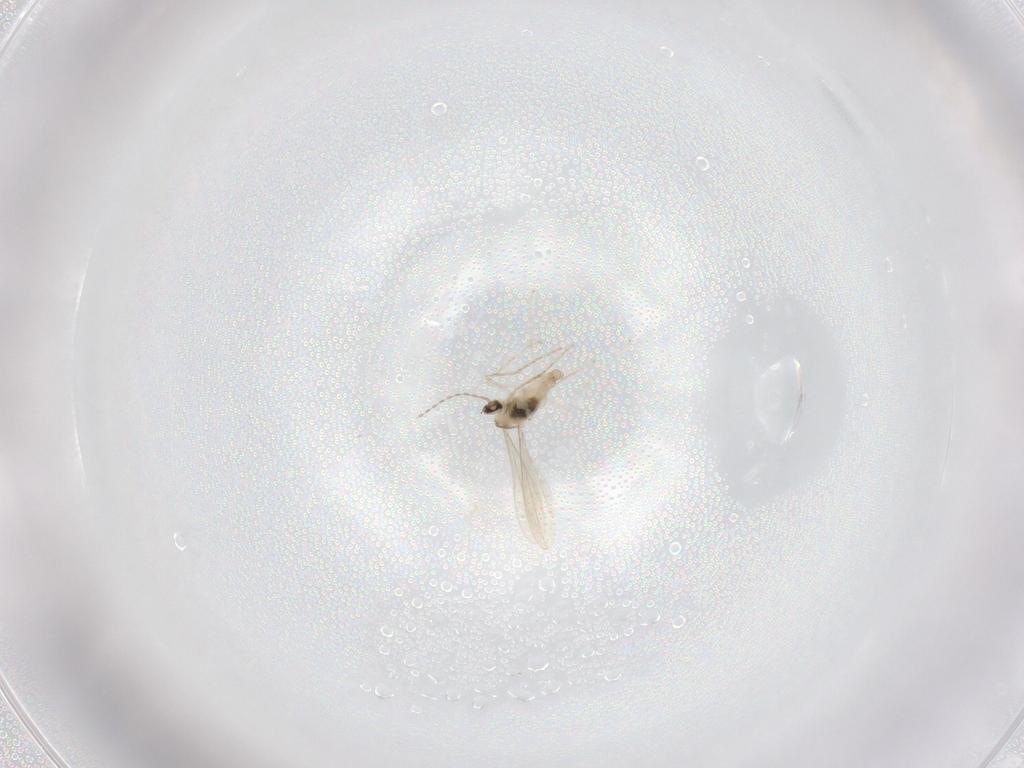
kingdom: Animalia
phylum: Arthropoda
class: Insecta
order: Diptera
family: Cecidomyiidae
